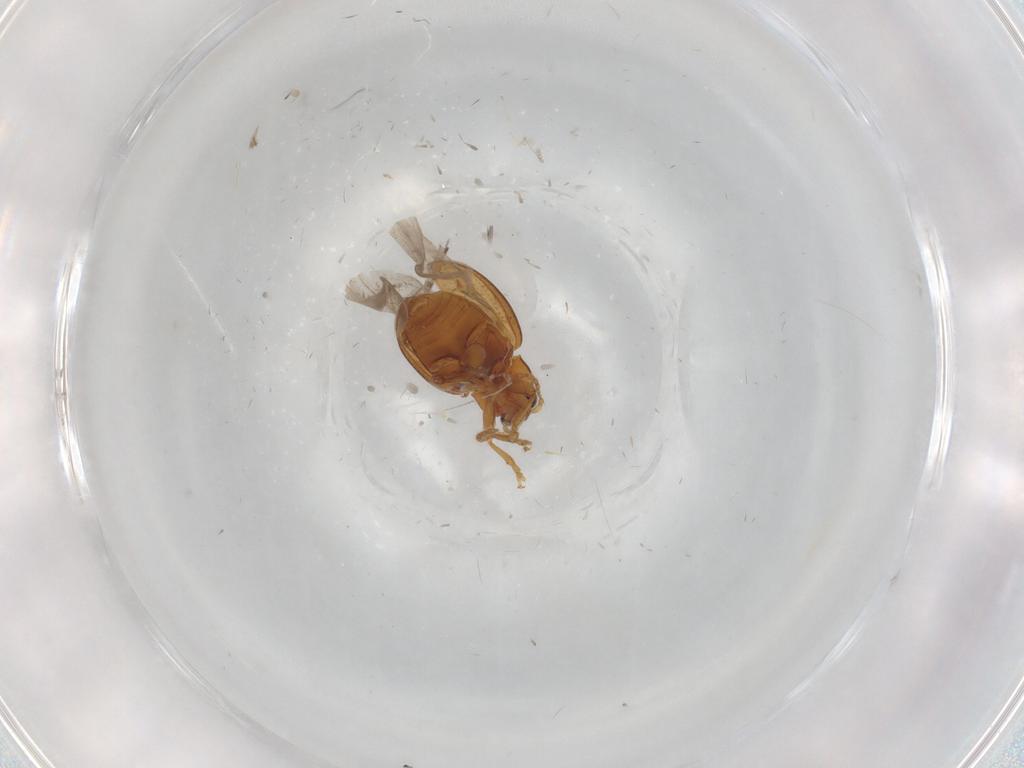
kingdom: Animalia
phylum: Arthropoda
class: Insecta
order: Coleoptera
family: Chrysomelidae
